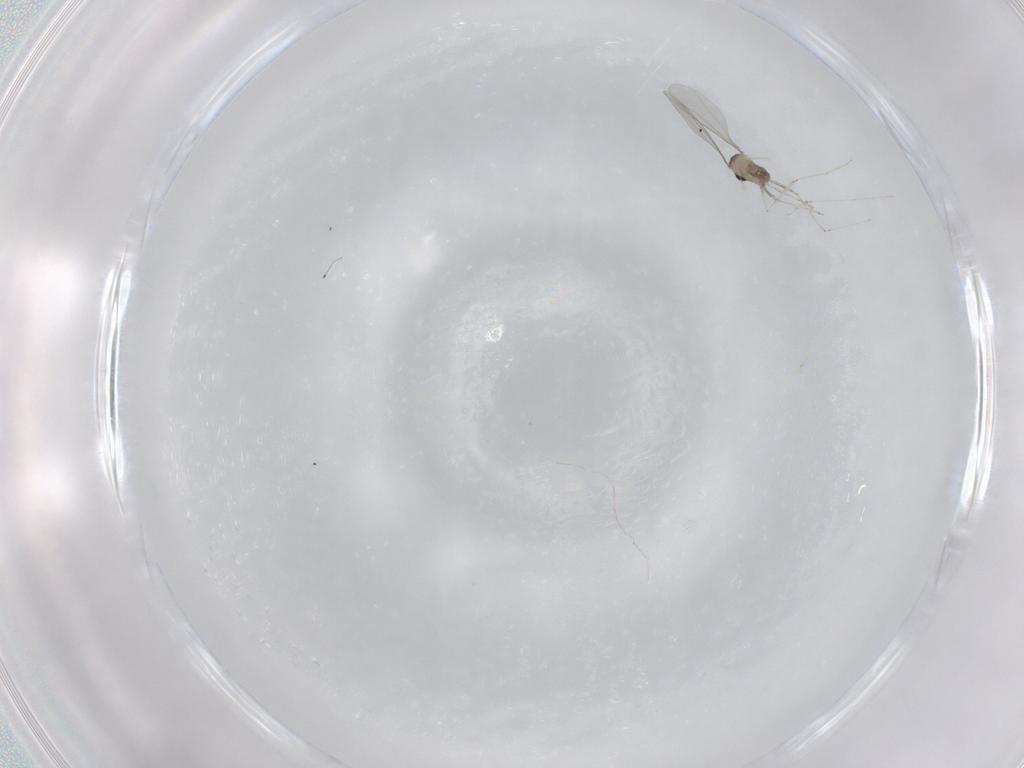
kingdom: Animalia
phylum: Arthropoda
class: Insecta
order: Diptera
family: Cecidomyiidae
